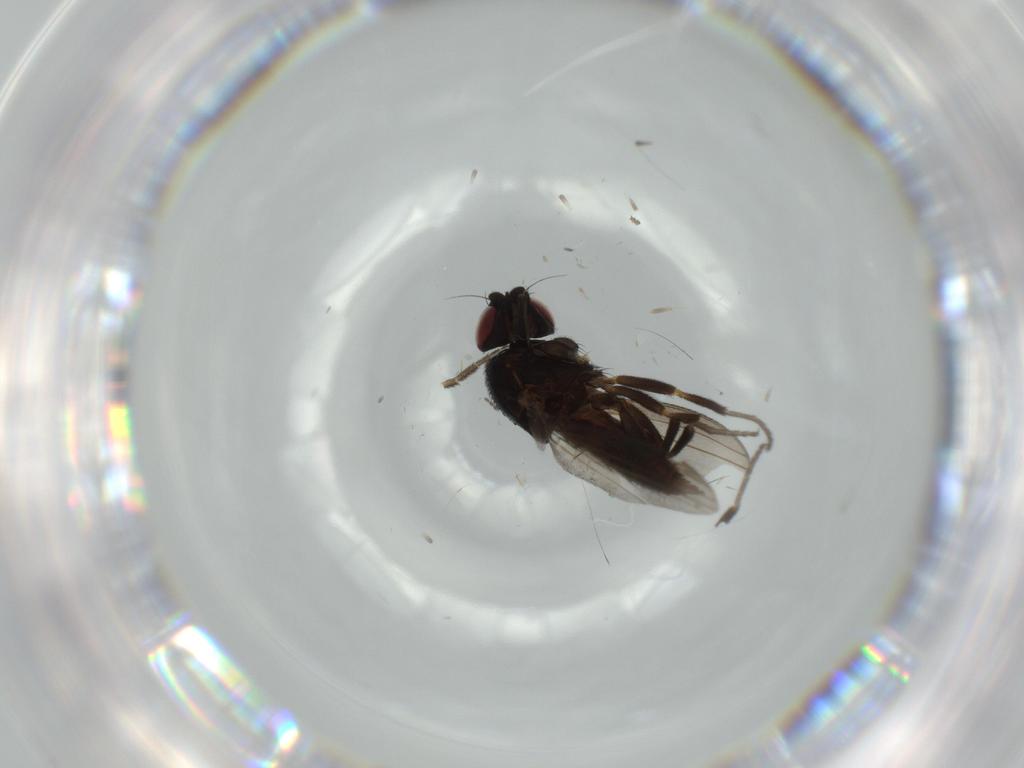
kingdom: Animalia
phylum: Arthropoda
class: Insecta
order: Diptera
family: Milichiidae
